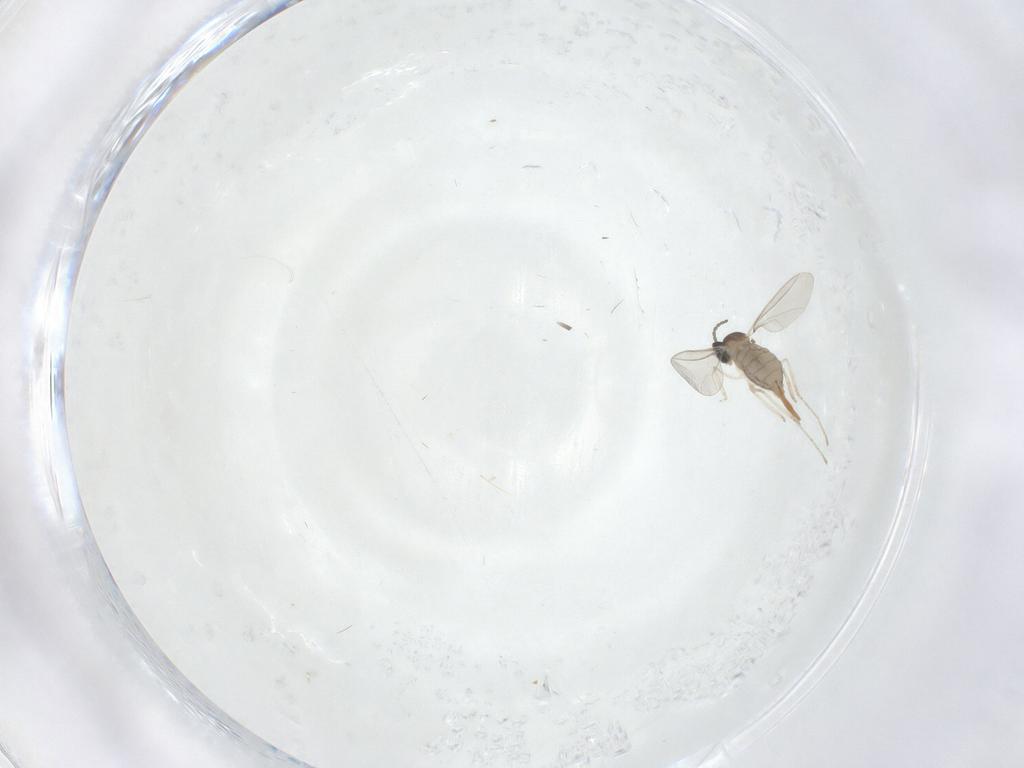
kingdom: Animalia
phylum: Arthropoda
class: Insecta
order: Diptera
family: Cecidomyiidae
